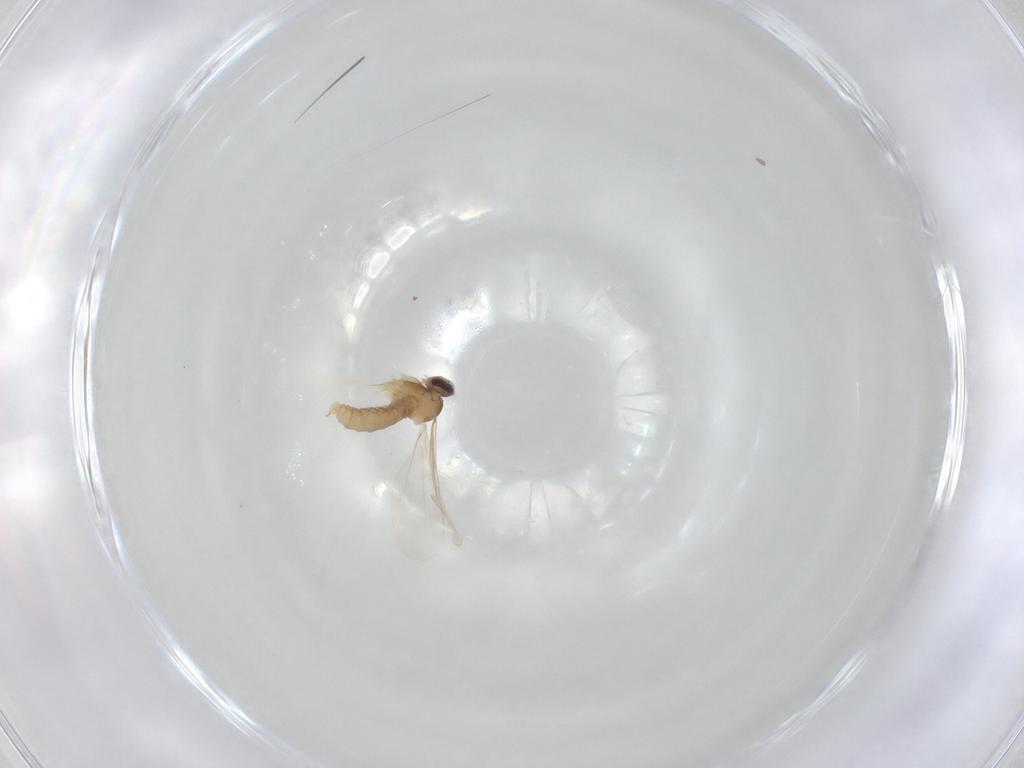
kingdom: Animalia
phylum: Arthropoda
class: Insecta
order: Diptera
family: Cecidomyiidae
